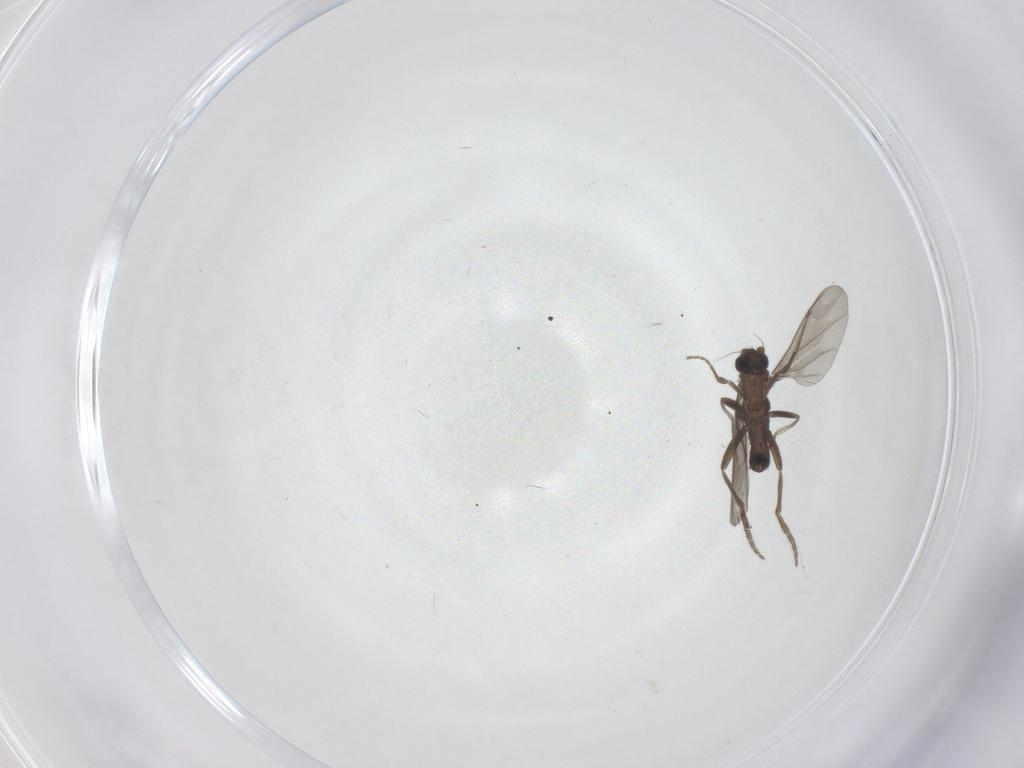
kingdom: Animalia
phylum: Arthropoda
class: Insecta
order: Diptera
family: Phoridae
